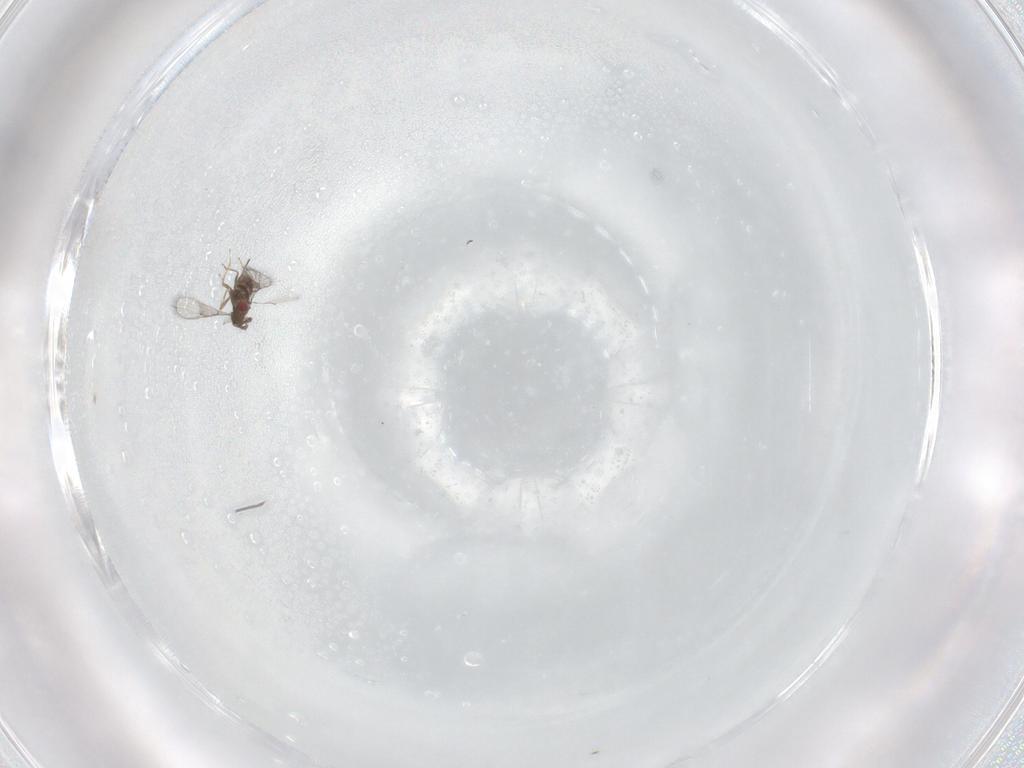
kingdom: Animalia
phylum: Arthropoda
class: Insecta
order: Hymenoptera
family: Trichogrammatidae
